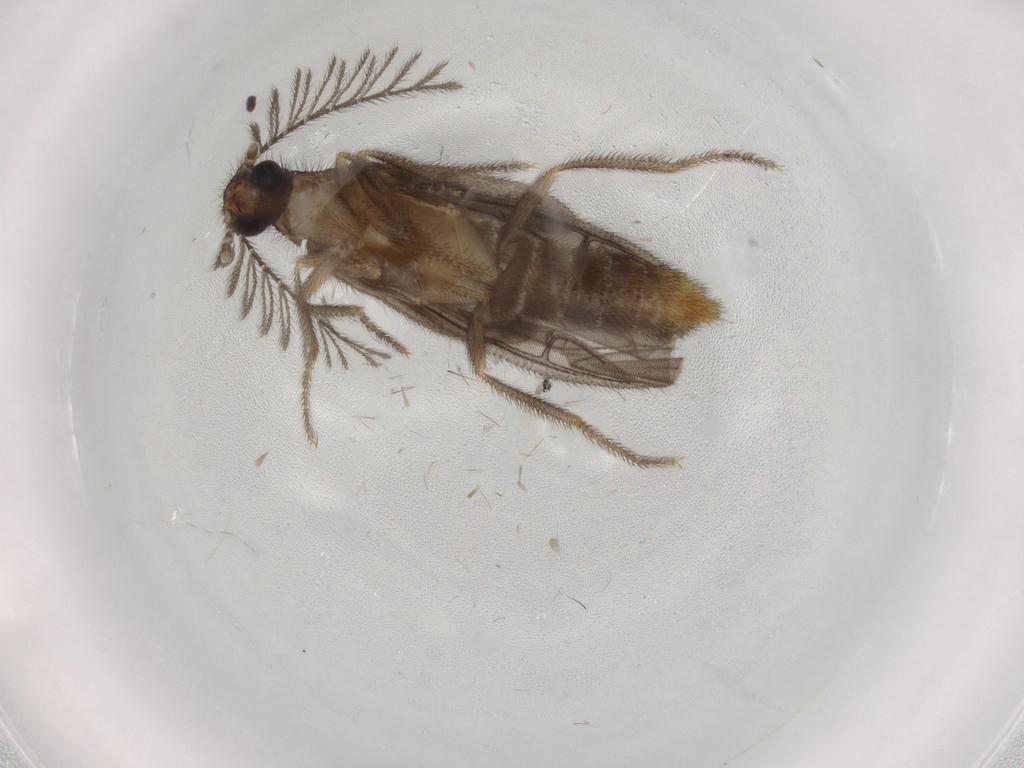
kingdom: Animalia
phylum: Arthropoda
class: Insecta
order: Coleoptera
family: Phengodidae
